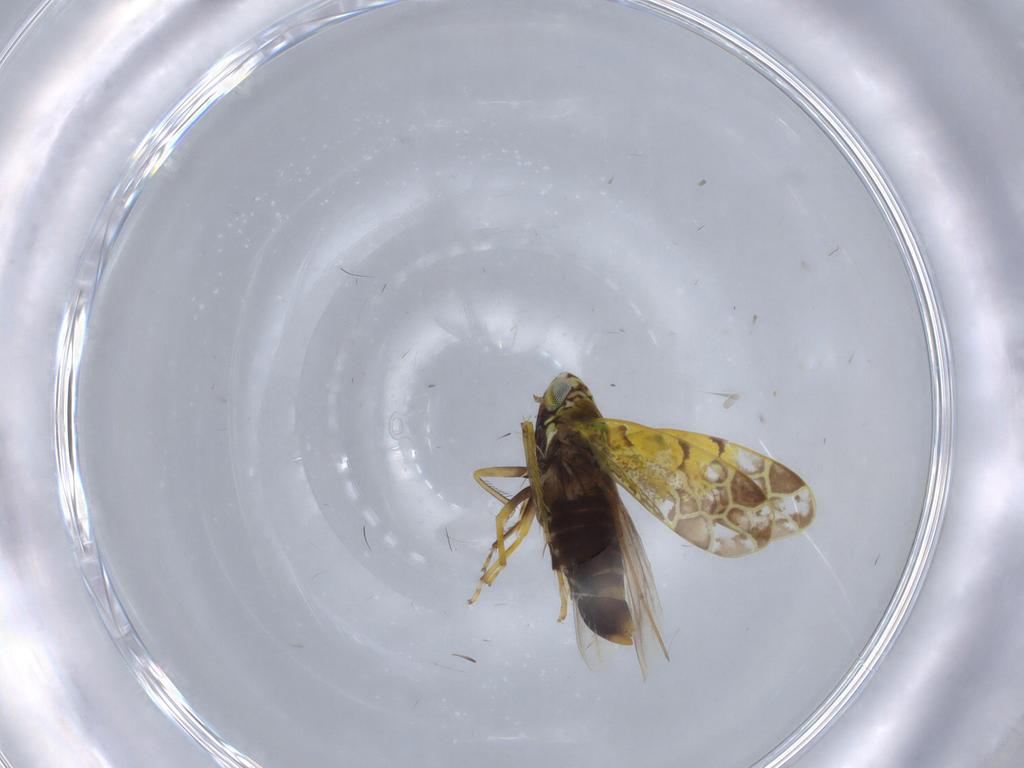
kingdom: Animalia
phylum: Arthropoda
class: Insecta
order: Hemiptera
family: Cicadellidae
